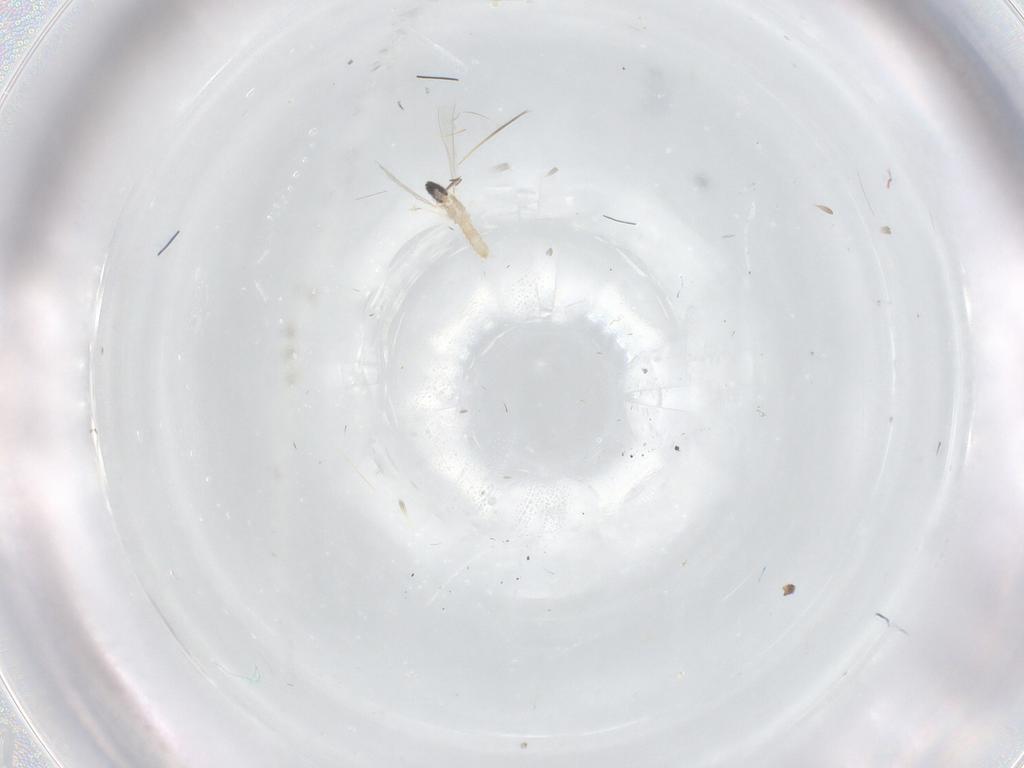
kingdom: Animalia
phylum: Arthropoda
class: Insecta
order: Diptera
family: Cecidomyiidae
